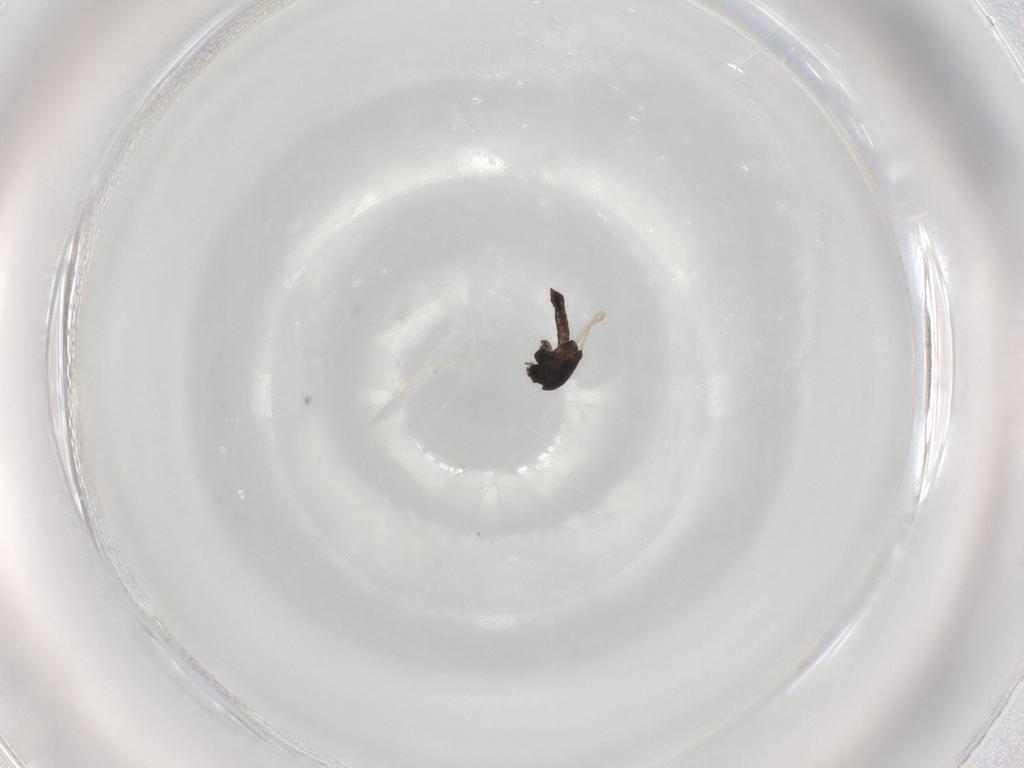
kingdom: Animalia
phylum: Arthropoda
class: Insecta
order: Diptera
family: Chironomidae
